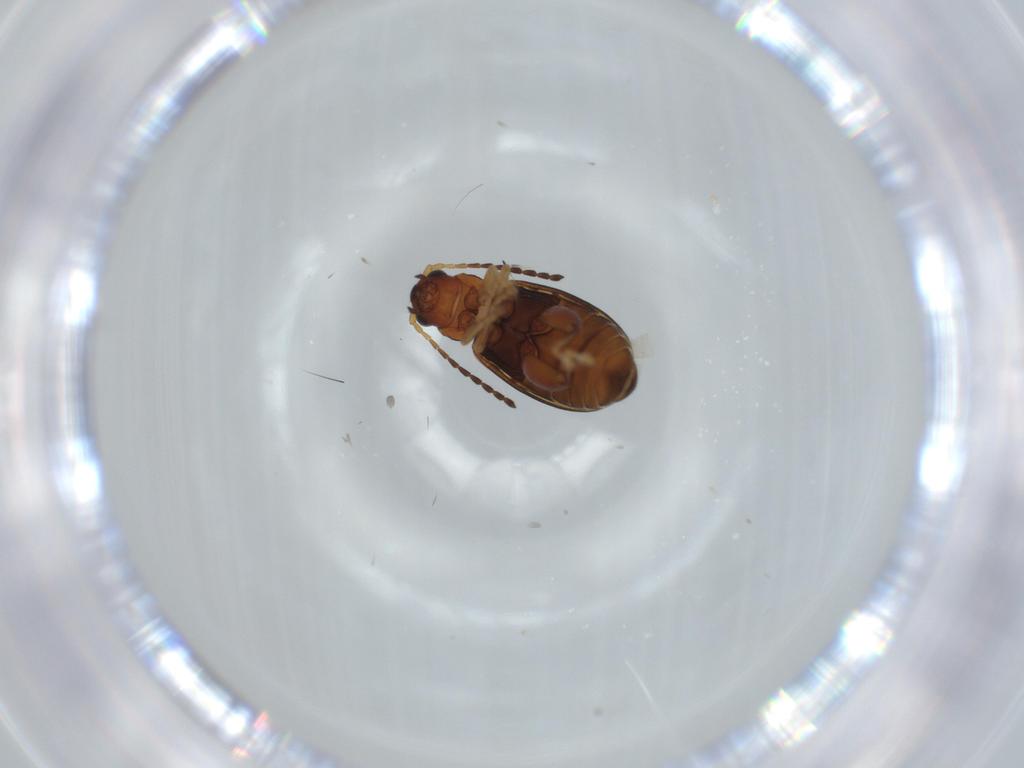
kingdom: Animalia
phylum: Arthropoda
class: Insecta
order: Coleoptera
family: Chrysomelidae
